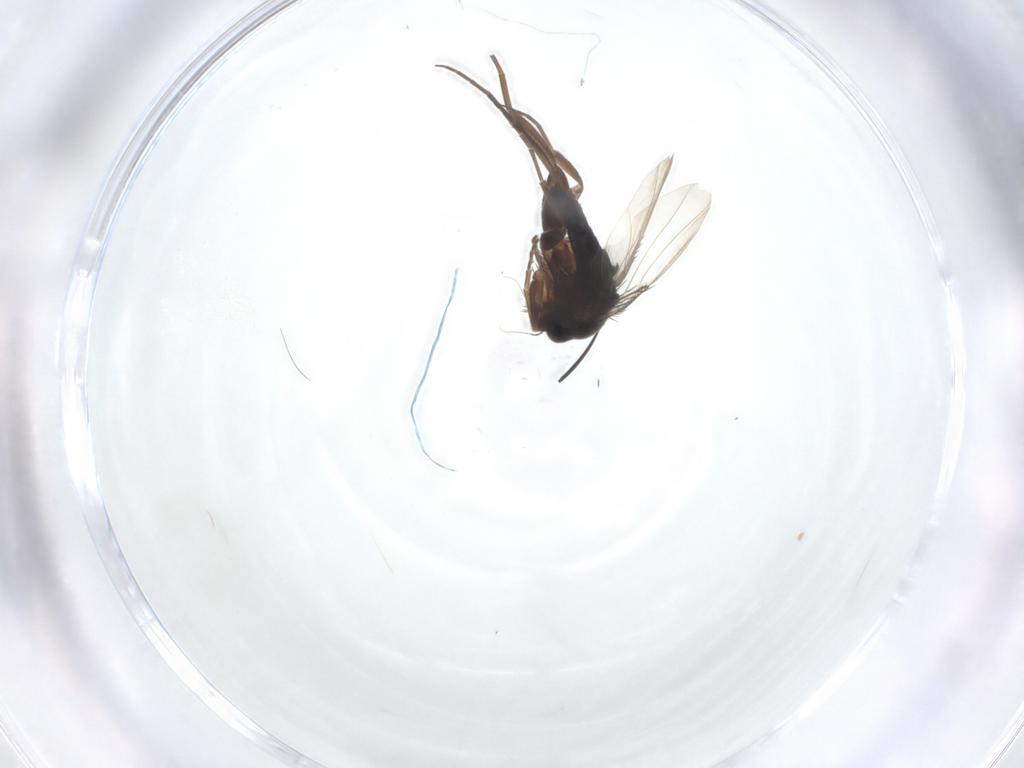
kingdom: Animalia
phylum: Arthropoda
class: Insecta
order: Diptera
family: Phoridae
